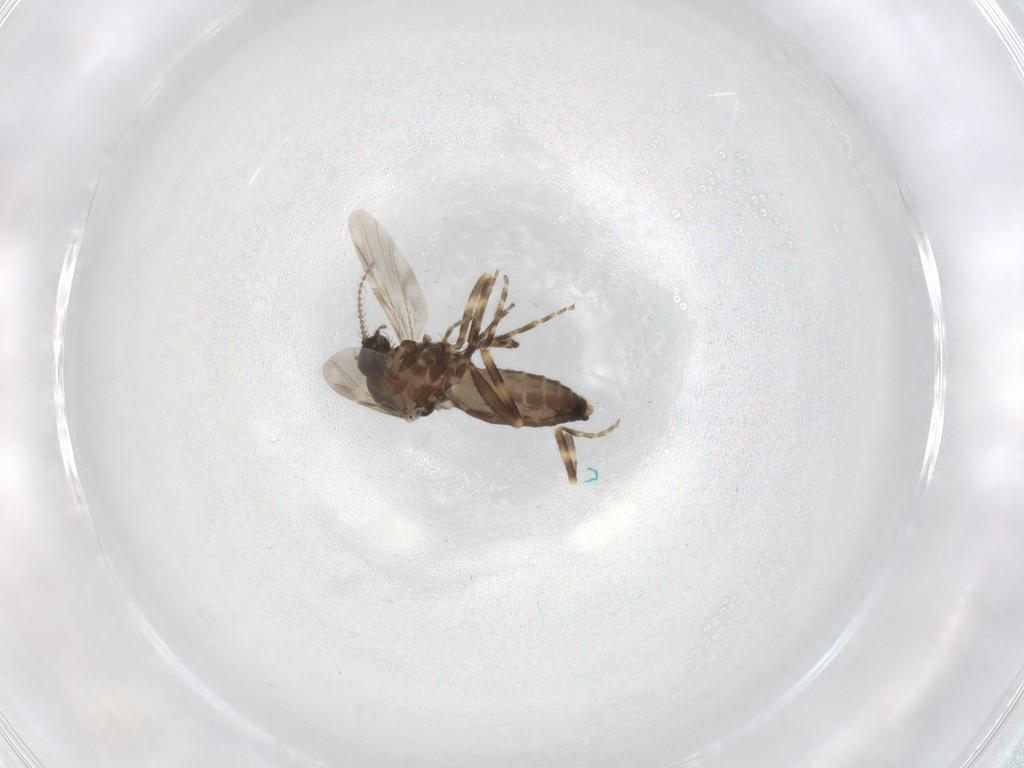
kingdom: Animalia
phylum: Arthropoda
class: Insecta
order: Diptera
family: Ceratopogonidae
